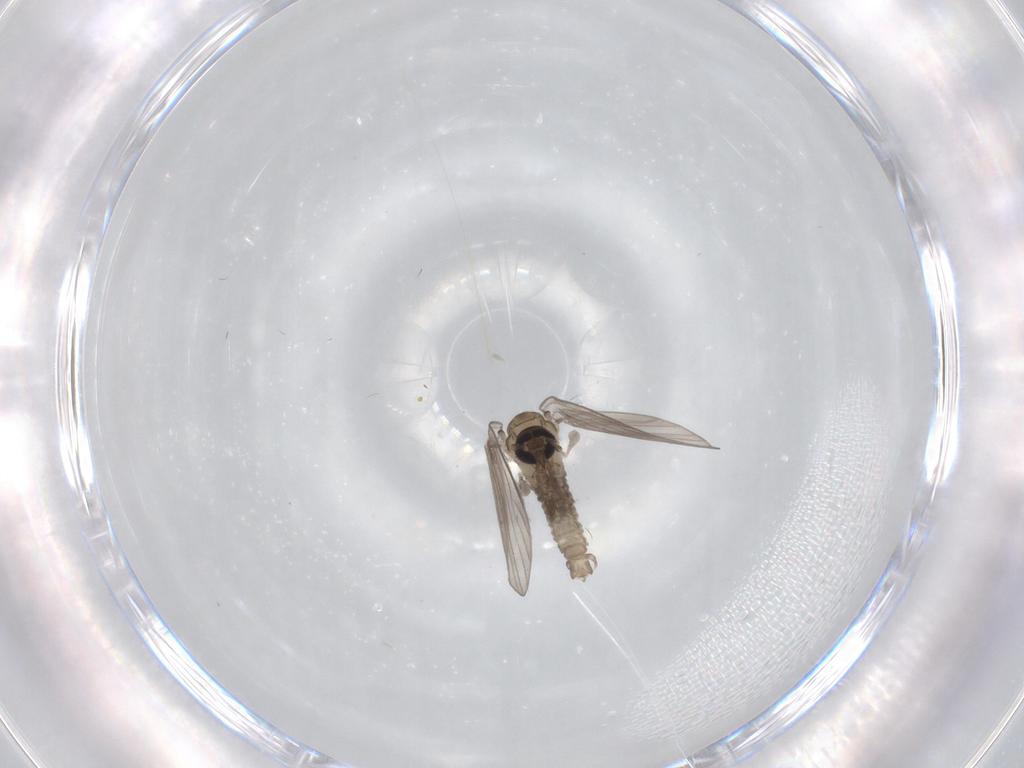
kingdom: Animalia
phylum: Arthropoda
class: Insecta
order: Diptera
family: Psychodidae
